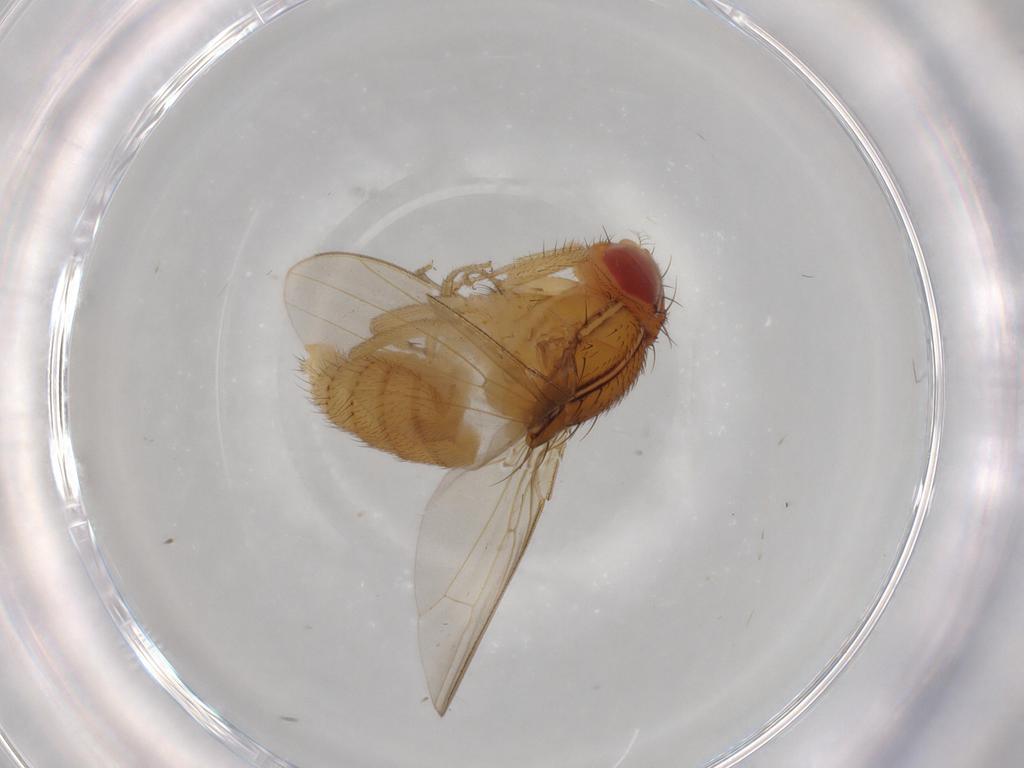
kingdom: Animalia
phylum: Arthropoda
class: Insecta
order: Diptera
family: Drosophilidae
